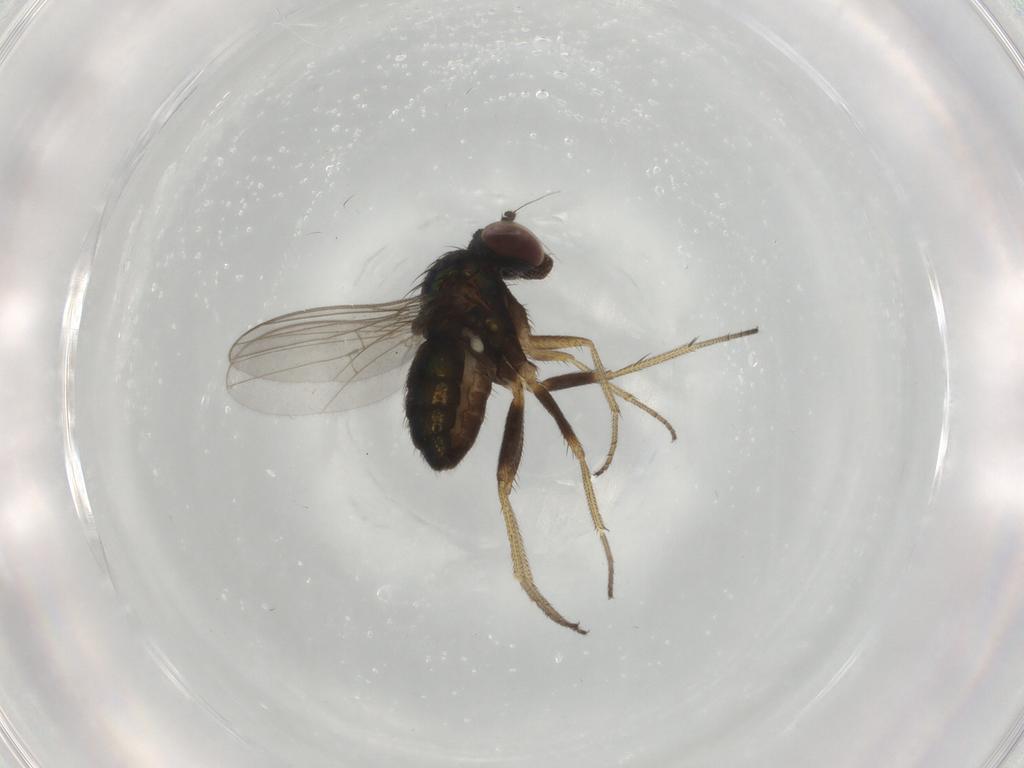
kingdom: Animalia
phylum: Arthropoda
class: Insecta
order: Diptera
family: Dolichopodidae
